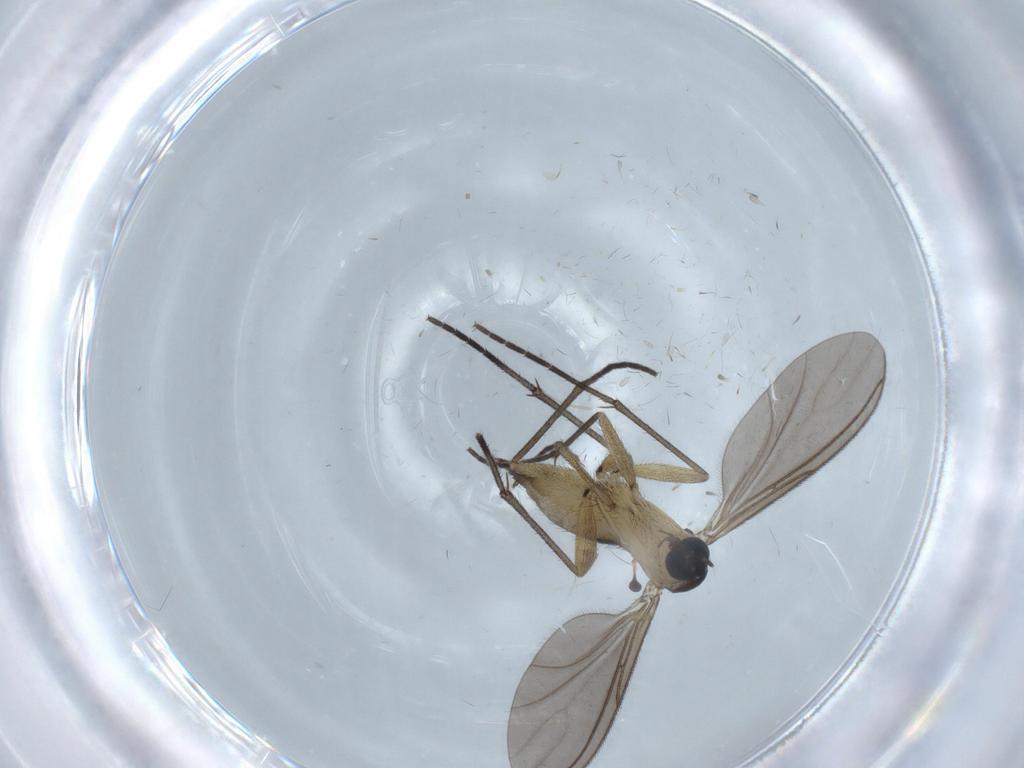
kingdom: Animalia
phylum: Arthropoda
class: Insecta
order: Diptera
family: Sciaridae
